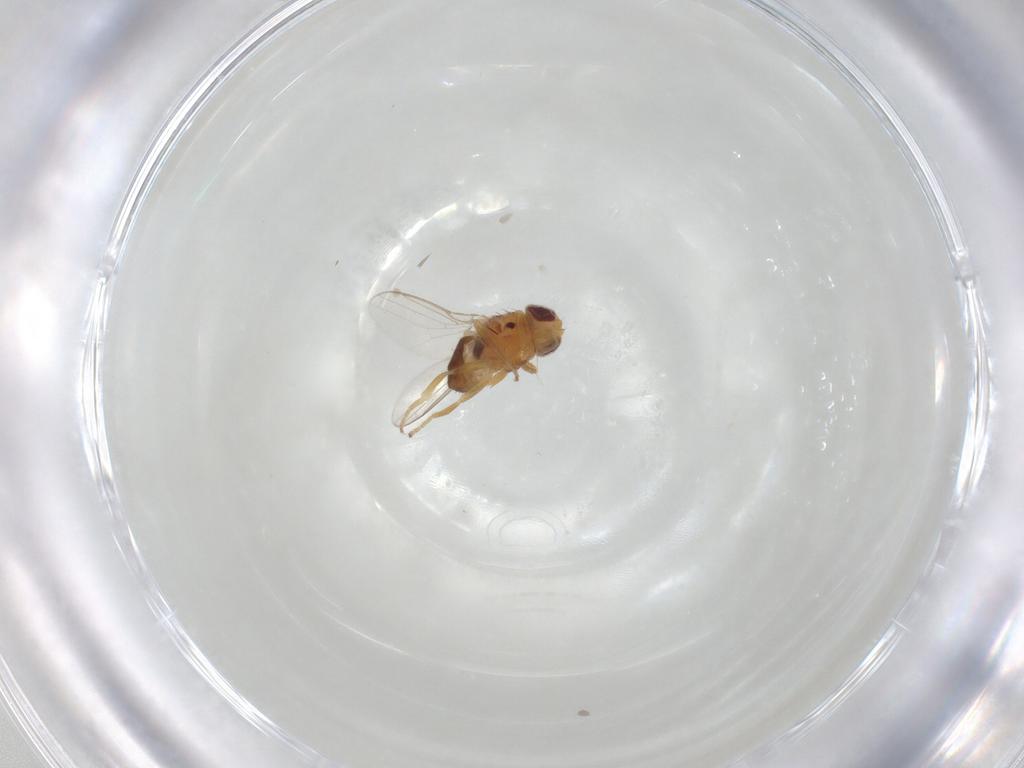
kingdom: Animalia
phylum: Arthropoda
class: Insecta
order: Diptera
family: Chloropidae
